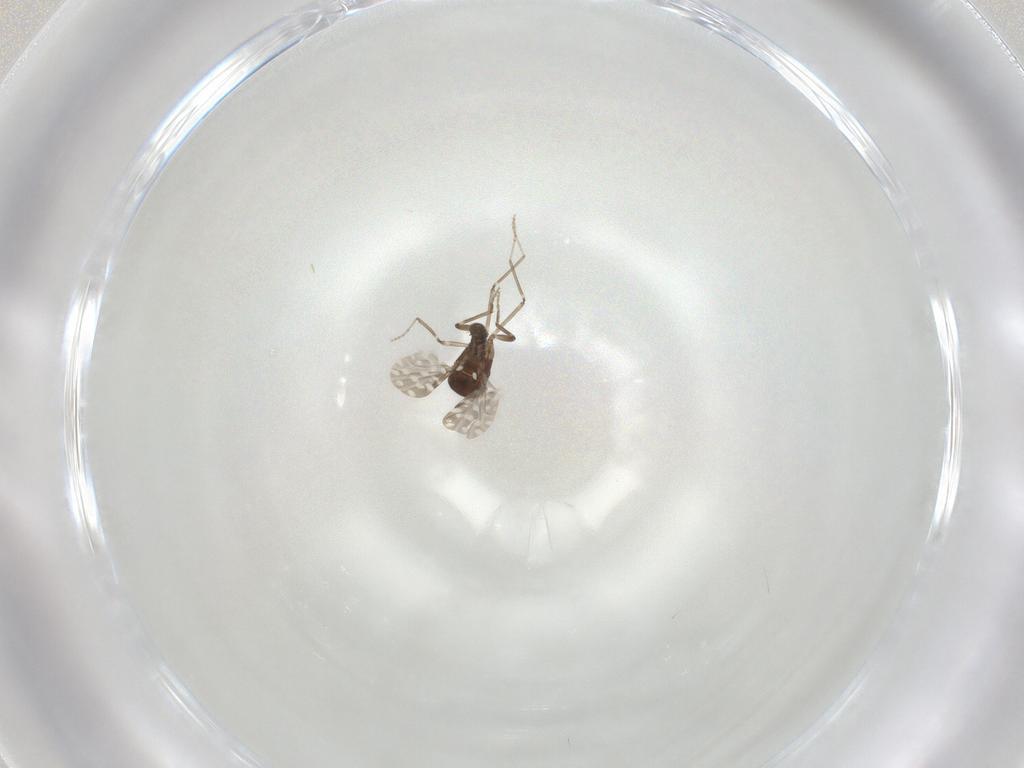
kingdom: Animalia
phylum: Arthropoda
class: Insecta
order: Diptera
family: Ceratopogonidae
